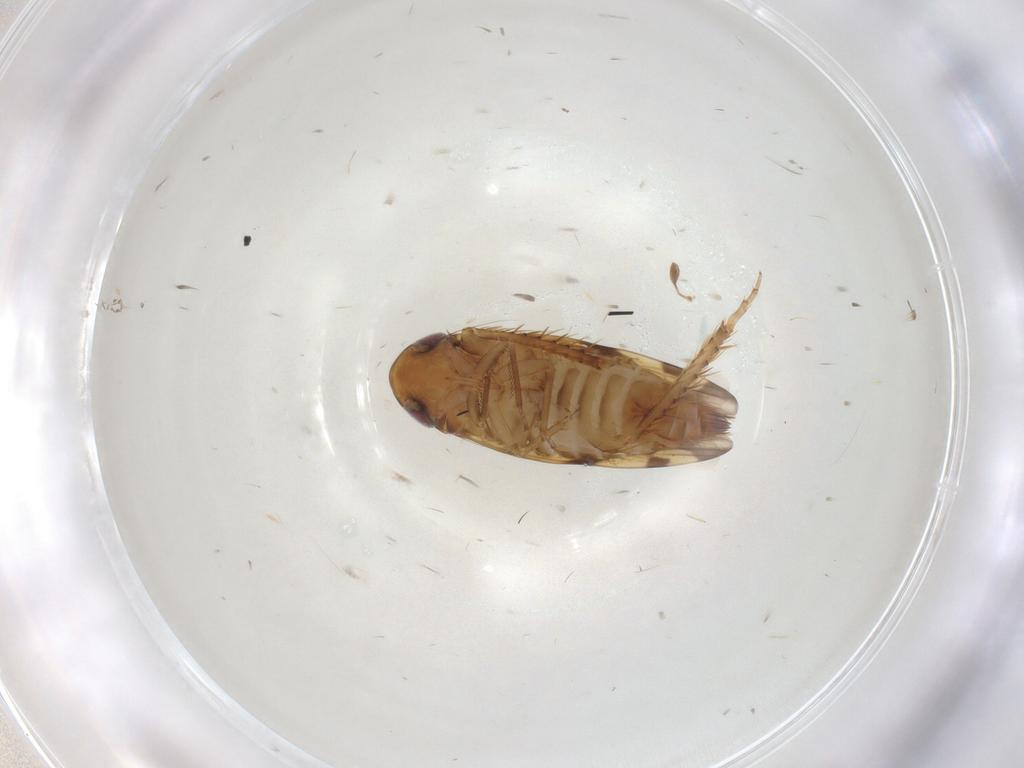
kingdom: Animalia
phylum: Arthropoda
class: Insecta
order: Hemiptera
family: Cicadellidae
